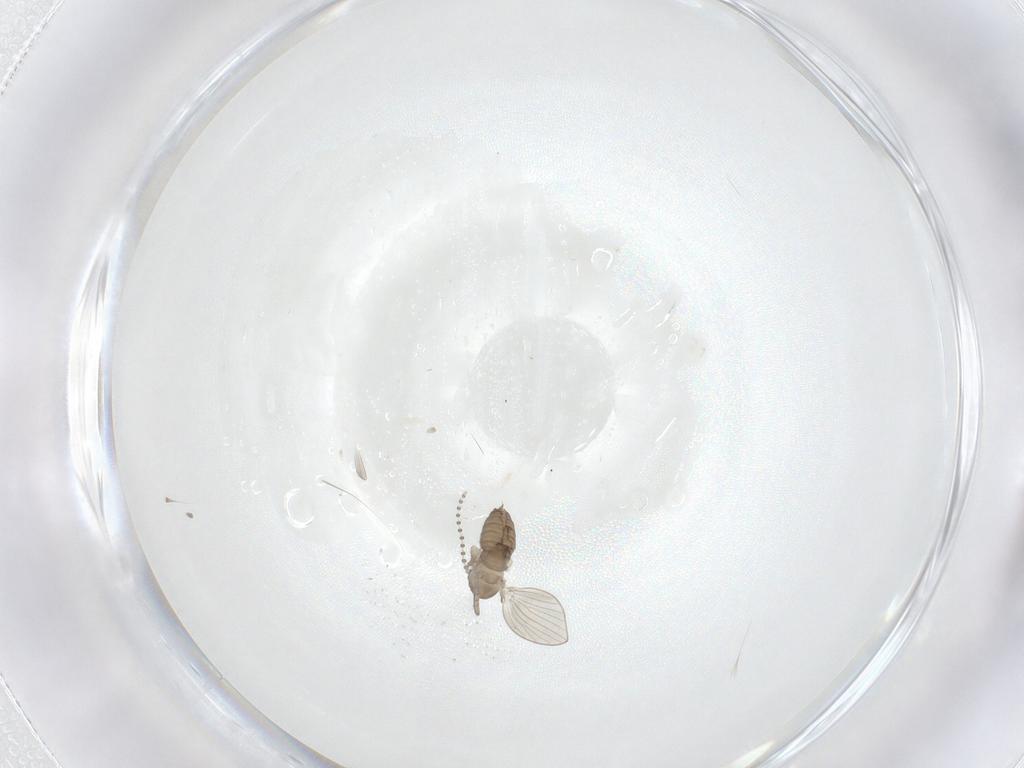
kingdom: Animalia
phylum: Arthropoda
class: Insecta
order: Diptera
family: Psychodidae
